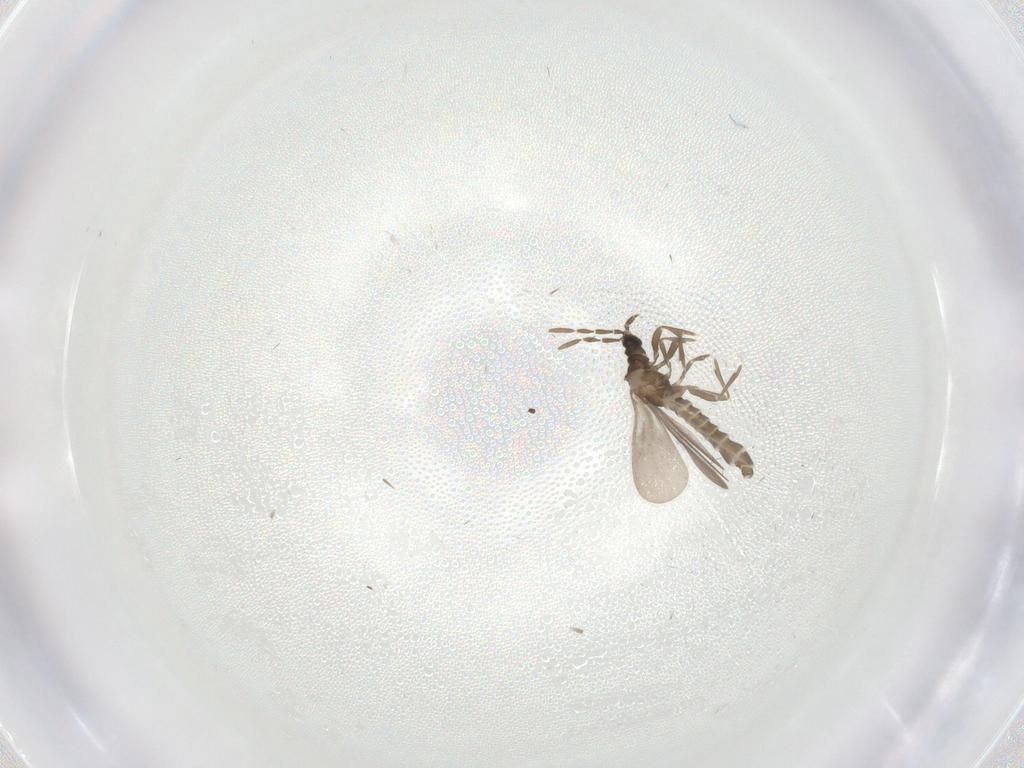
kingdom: Animalia
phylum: Arthropoda
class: Insecta
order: Hemiptera
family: Enicocephalidae
